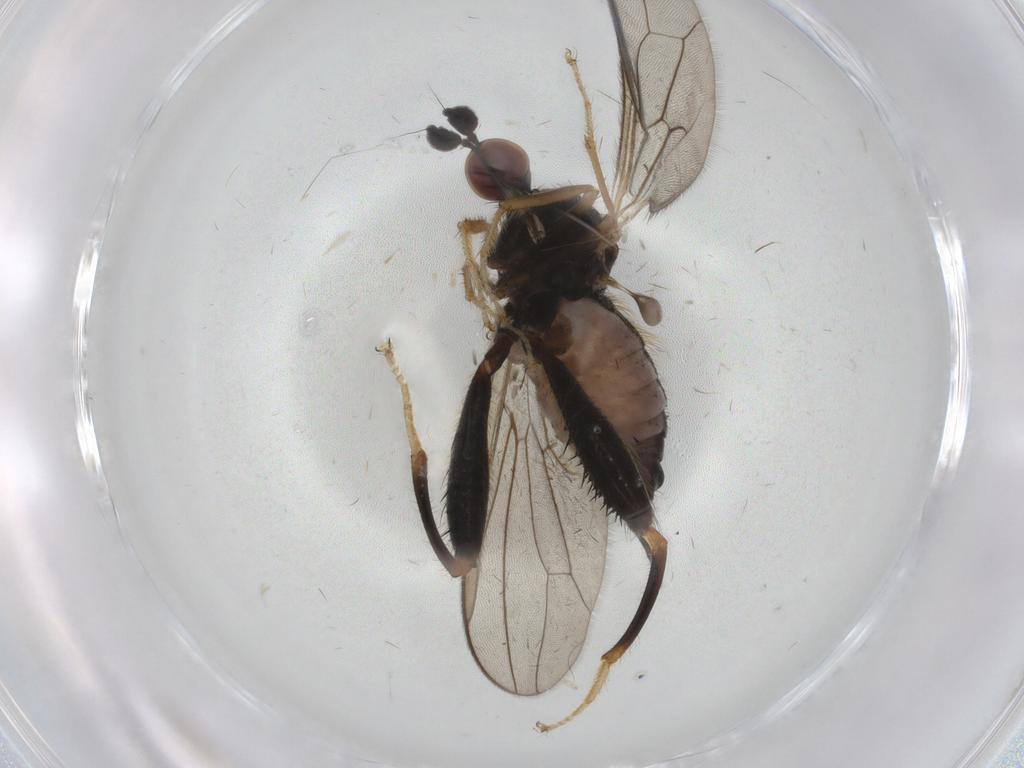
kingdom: Animalia
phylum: Arthropoda
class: Insecta
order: Diptera
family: Hybotidae
